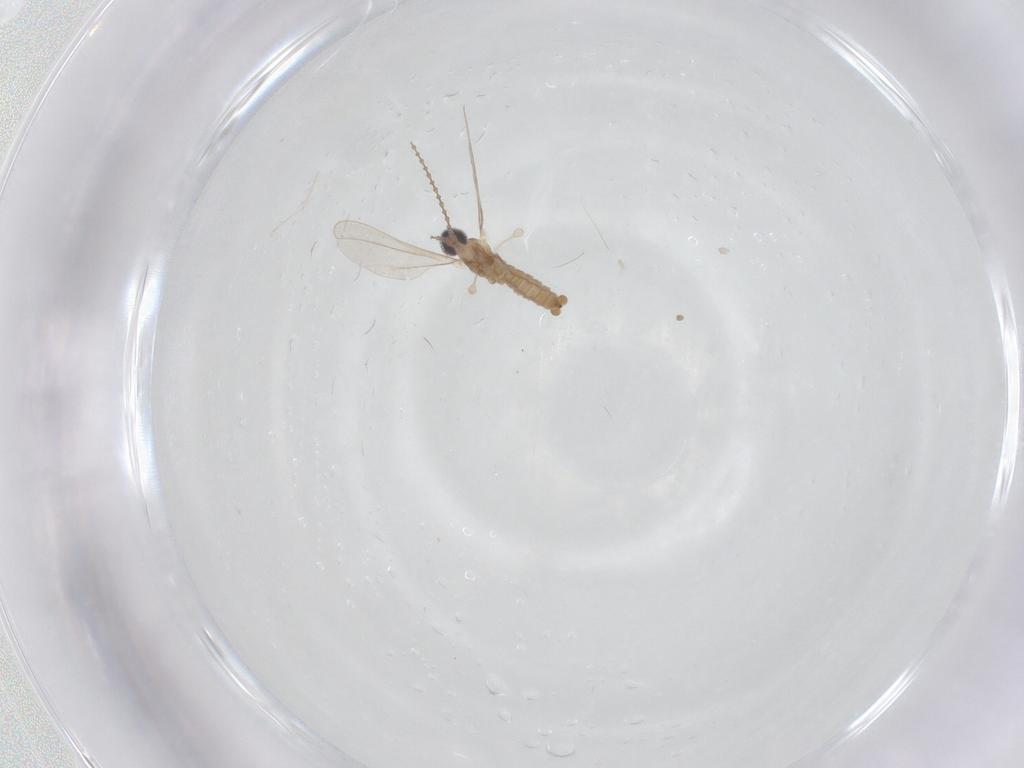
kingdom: Animalia
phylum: Arthropoda
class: Insecta
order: Diptera
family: Cecidomyiidae
